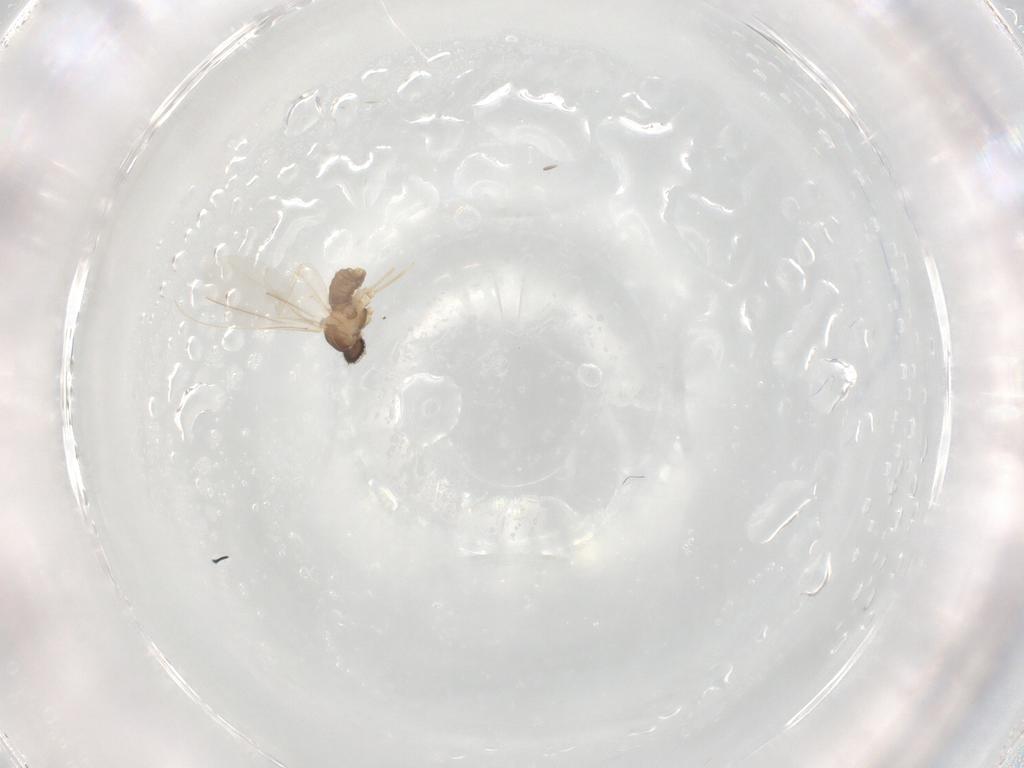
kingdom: Animalia
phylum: Arthropoda
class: Insecta
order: Diptera
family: Cecidomyiidae
